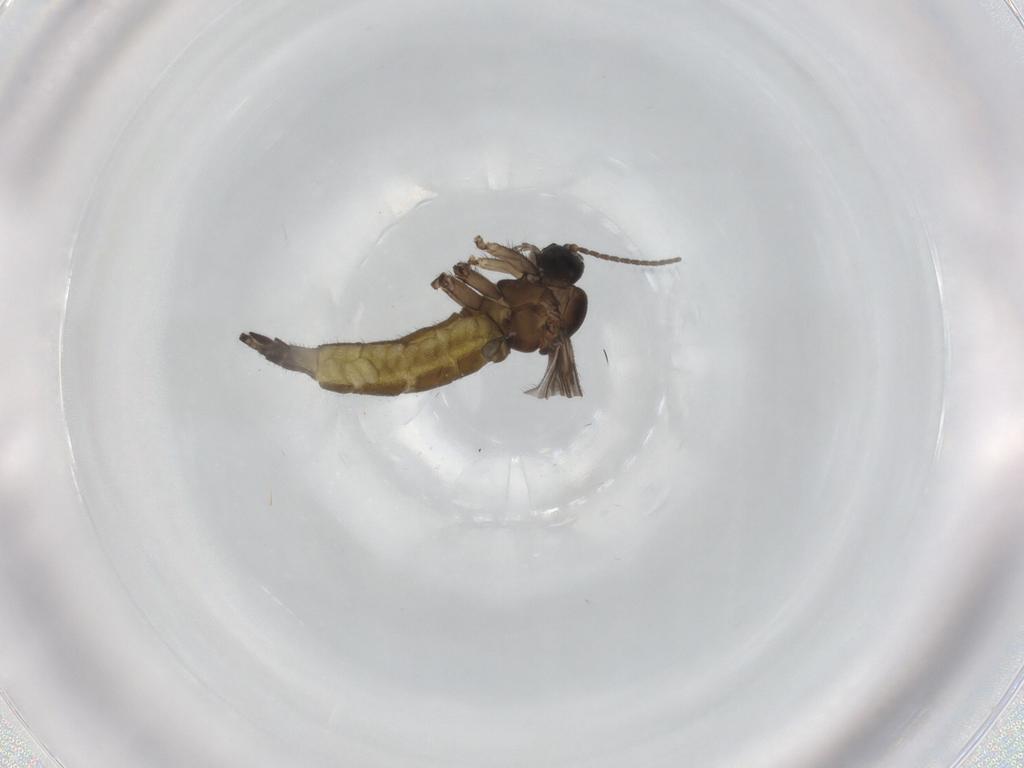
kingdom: Animalia
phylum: Arthropoda
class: Insecta
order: Diptera
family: Sciaridae
